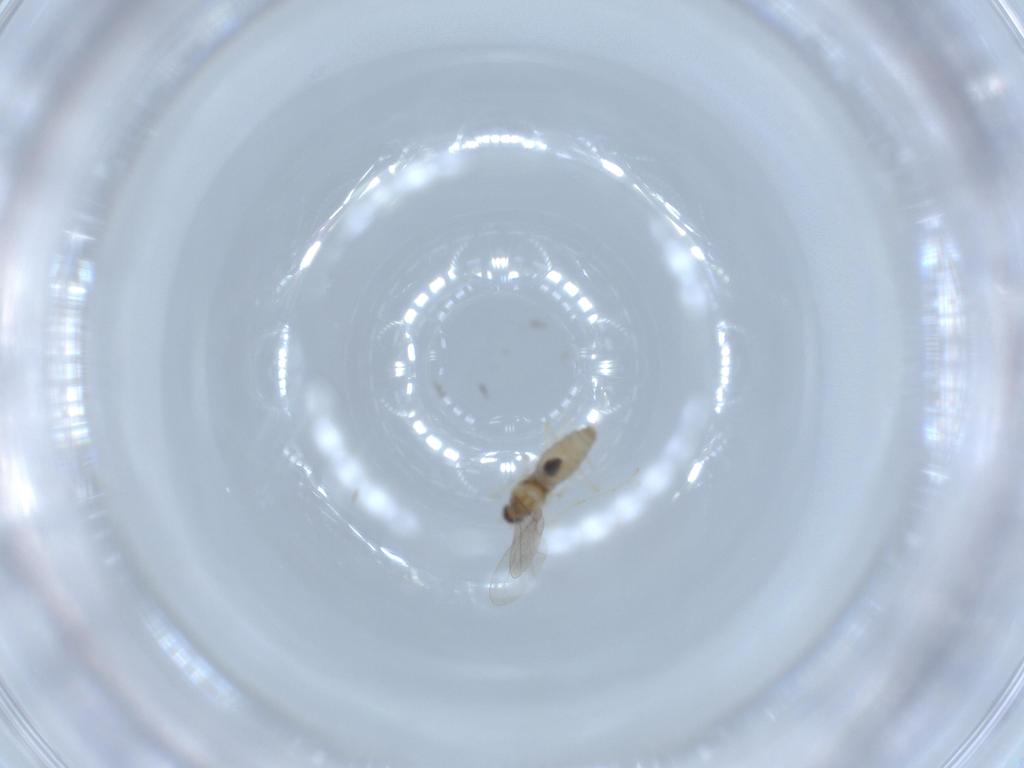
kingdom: Animalia
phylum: Arthropoda
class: Insecta
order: Diptera
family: Cecidomyiidae
